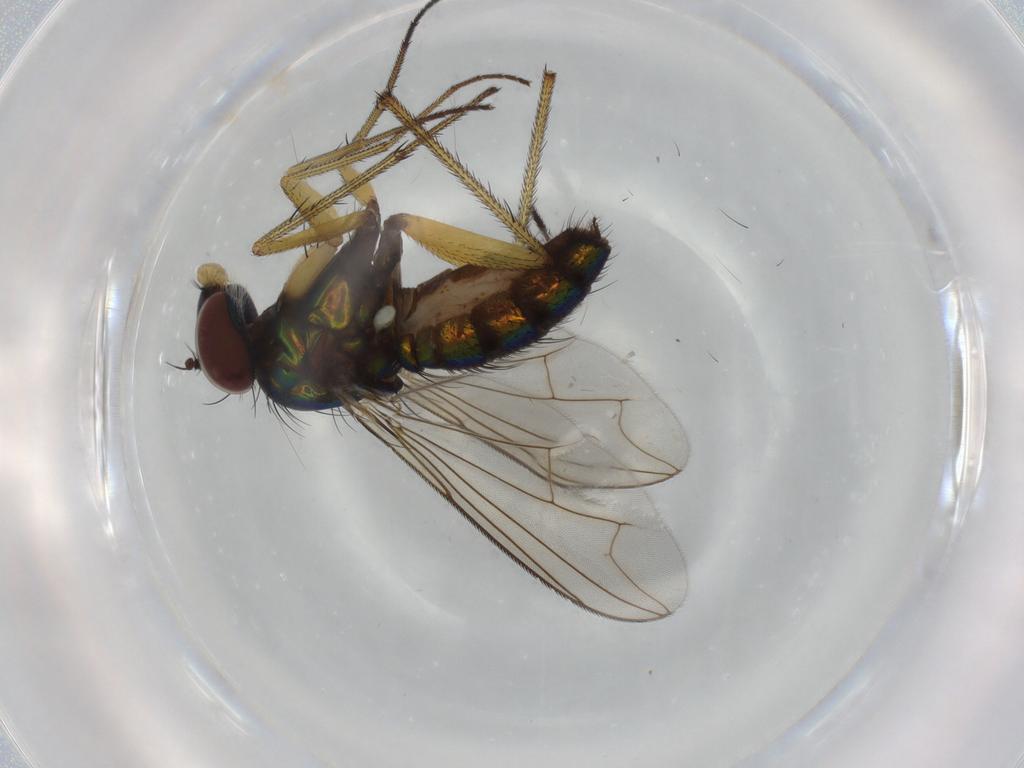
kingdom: Animalia
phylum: Arthropoda
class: Insecta
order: Diptera
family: Dolichopodidae
